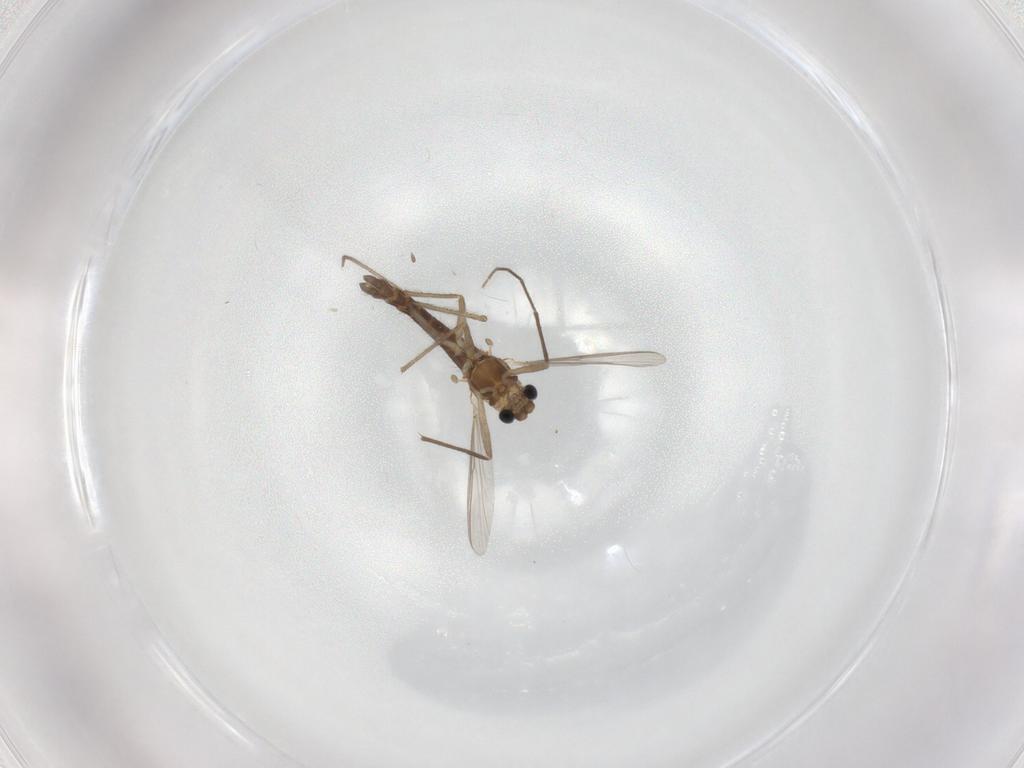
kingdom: Animalia
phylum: Arthropoda
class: Insecta
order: Diptera
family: Chironomidae
